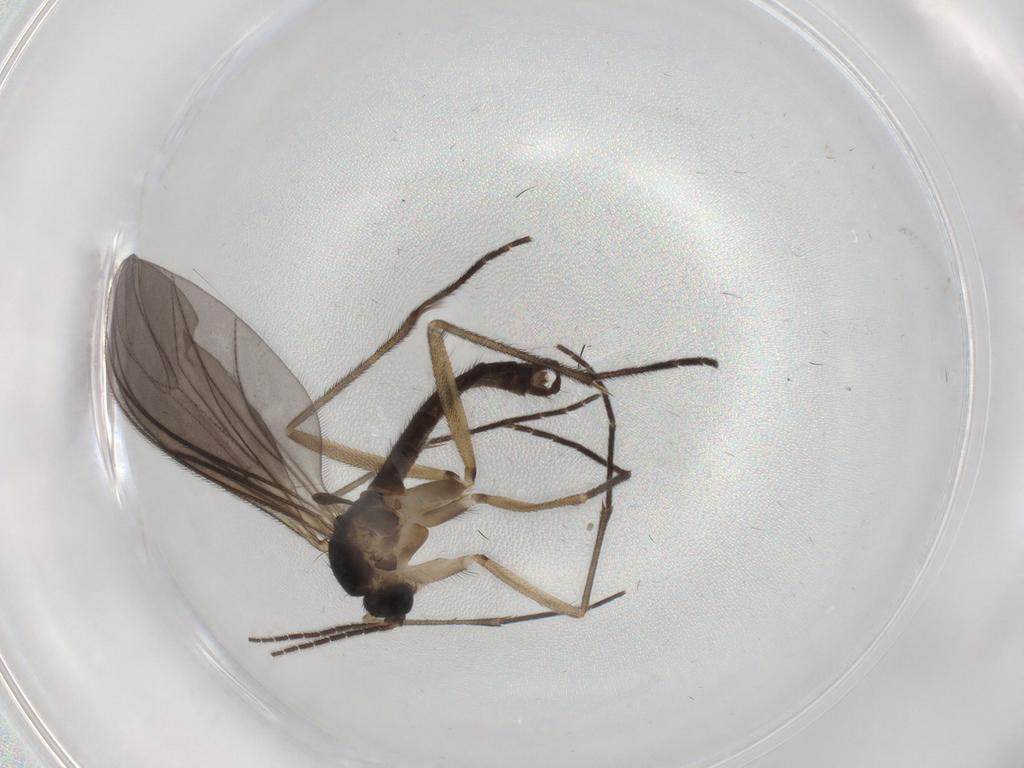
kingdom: Animalia
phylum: Arthropoda
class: Insecta
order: Diptera
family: Sciaridae
